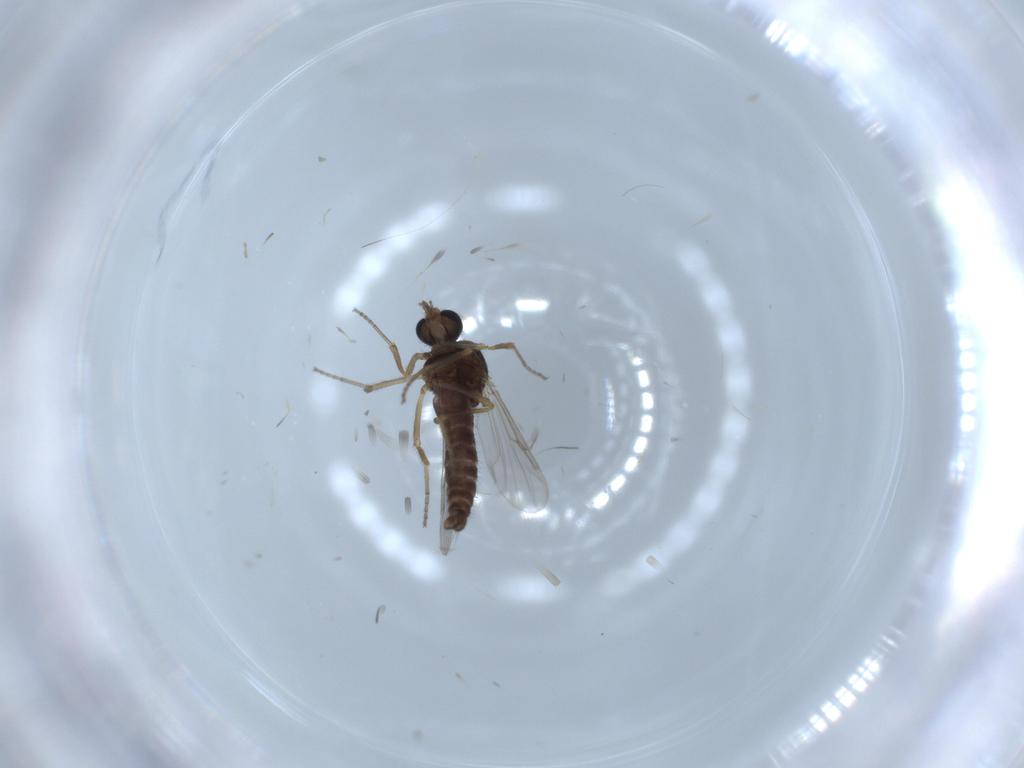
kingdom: Animalia
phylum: Arthropoda
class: Insecta
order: Diptera
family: Ceratopogonidae
